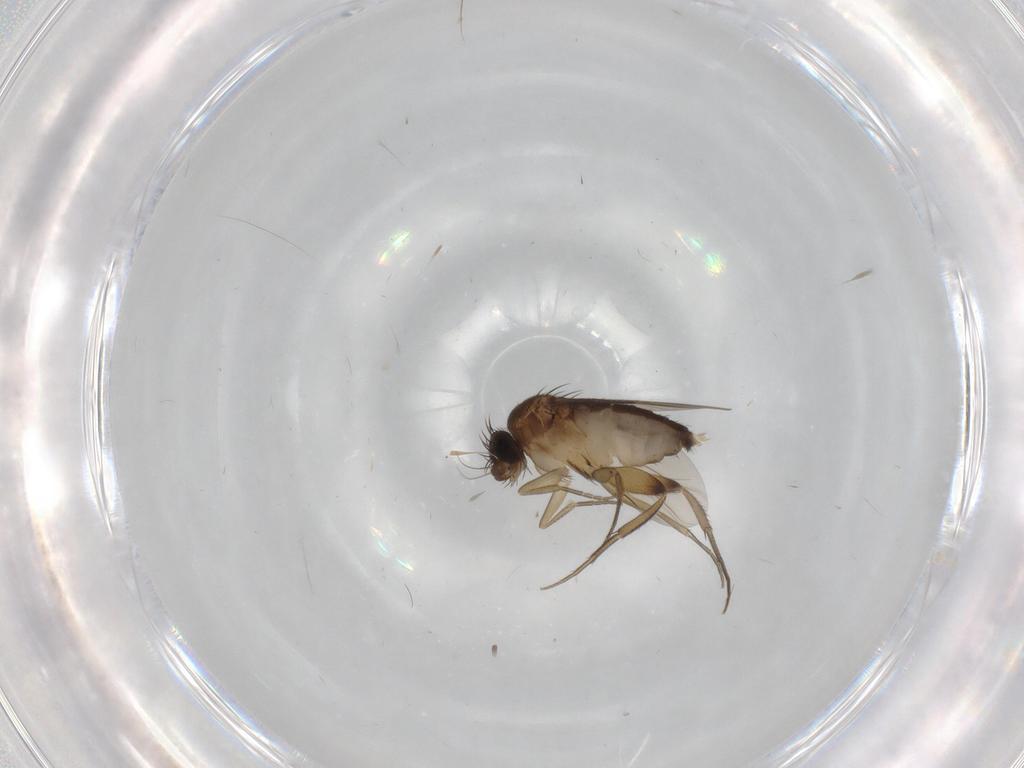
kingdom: Animalia
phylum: Arthropoda
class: Insecta
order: Diptera
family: Phoridae
